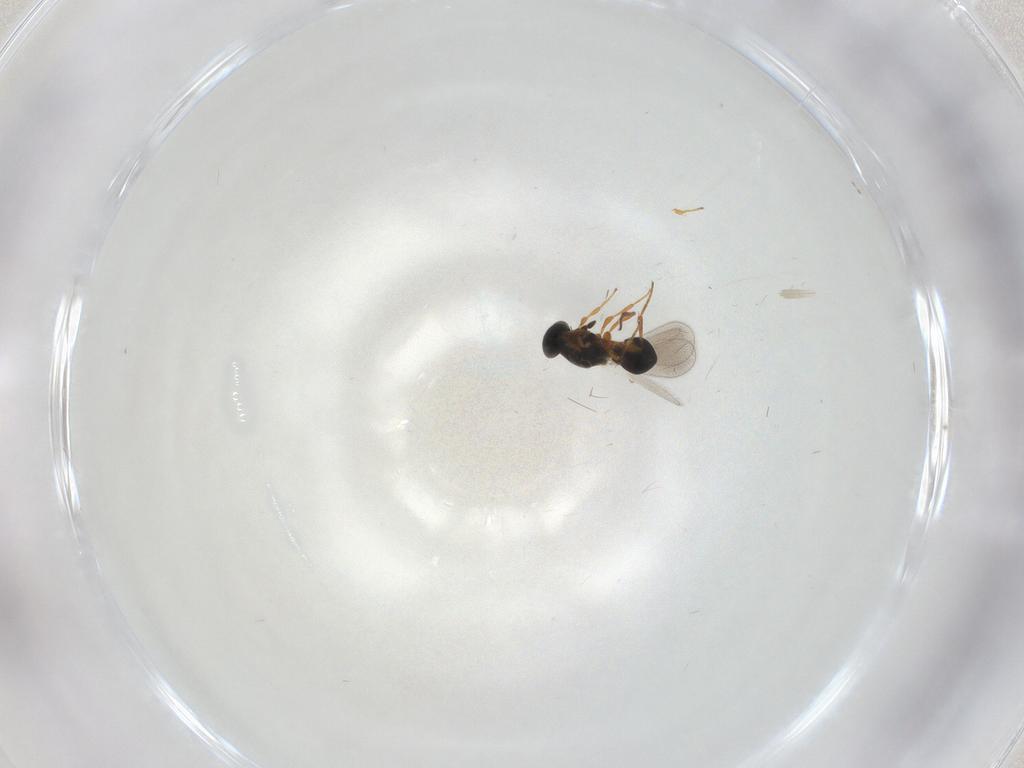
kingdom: Animalia
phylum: Arthropoda
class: Insecta
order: Hymenoptera
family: Platygastridae
